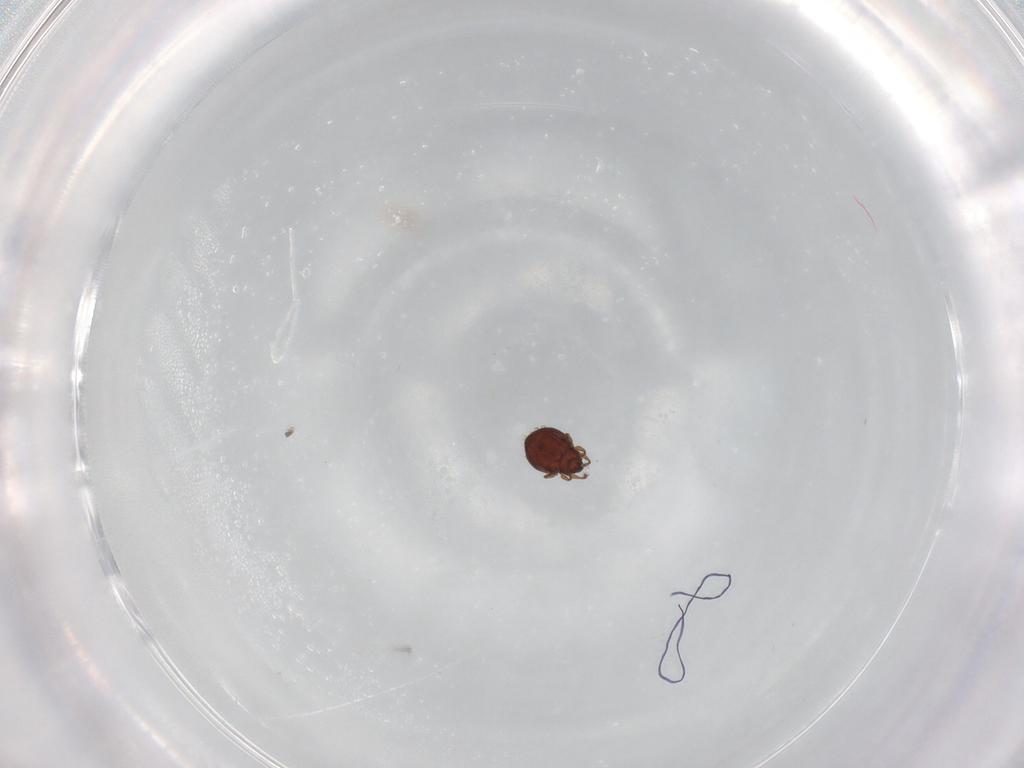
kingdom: Animalia
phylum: Arthropoda
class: Arachnida
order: Sarcoptiformes
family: Scheloribatidae
